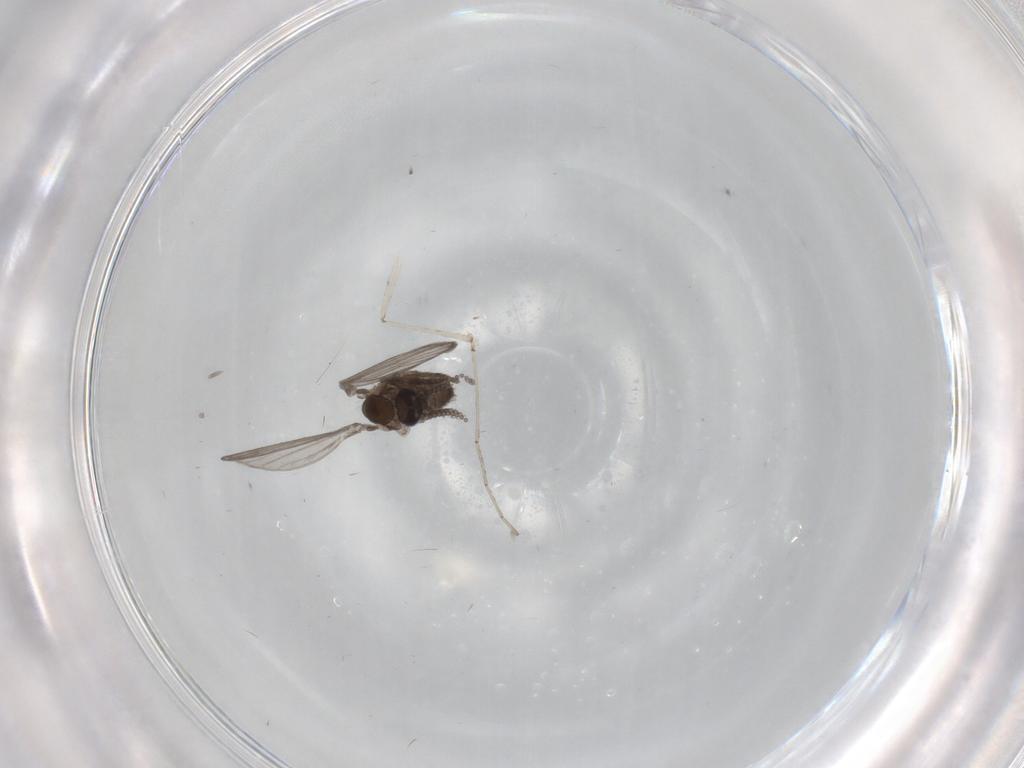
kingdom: Animalia
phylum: Arthropoda
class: Insecta
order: Diptera
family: Psychodidae
